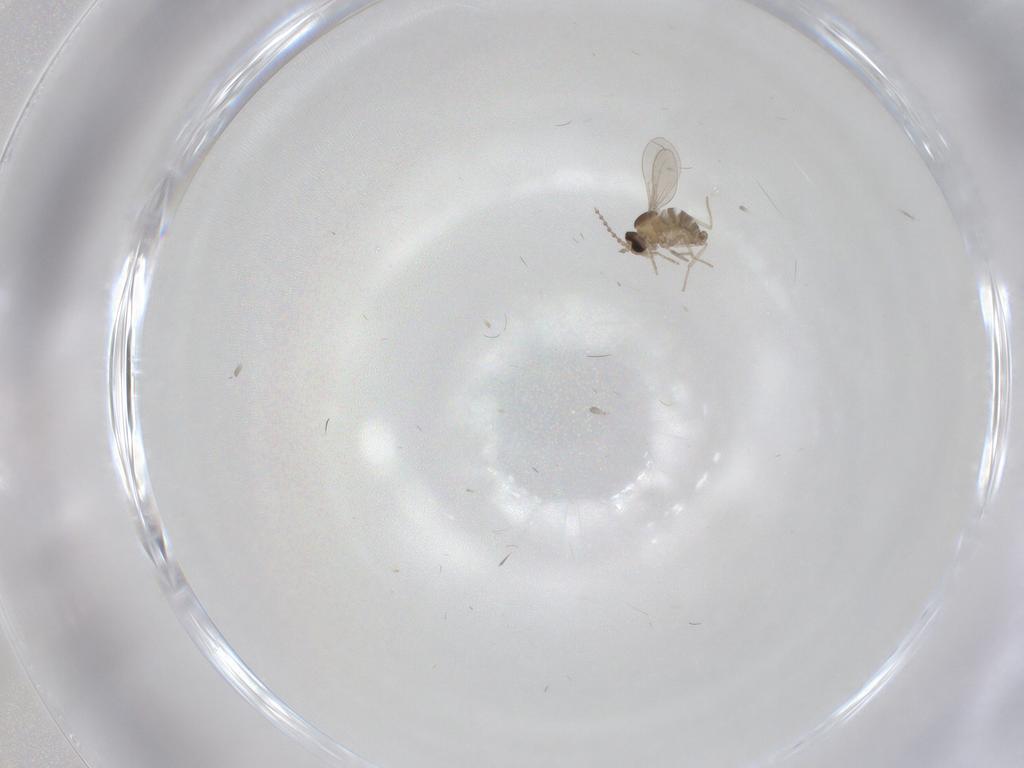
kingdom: Animalia
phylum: Arthropoda
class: Insecta
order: Diptera
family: Cecidomyiidae
